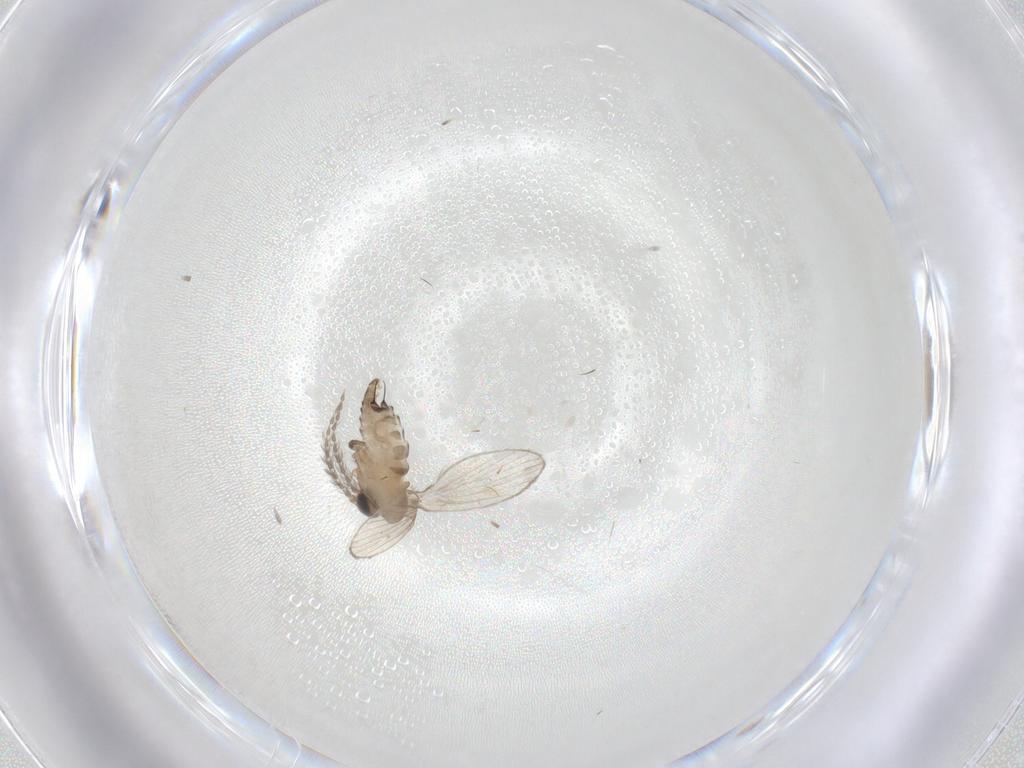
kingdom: Animalia
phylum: Arthropoda
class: Insecta
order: Diptera
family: Psychodidae
